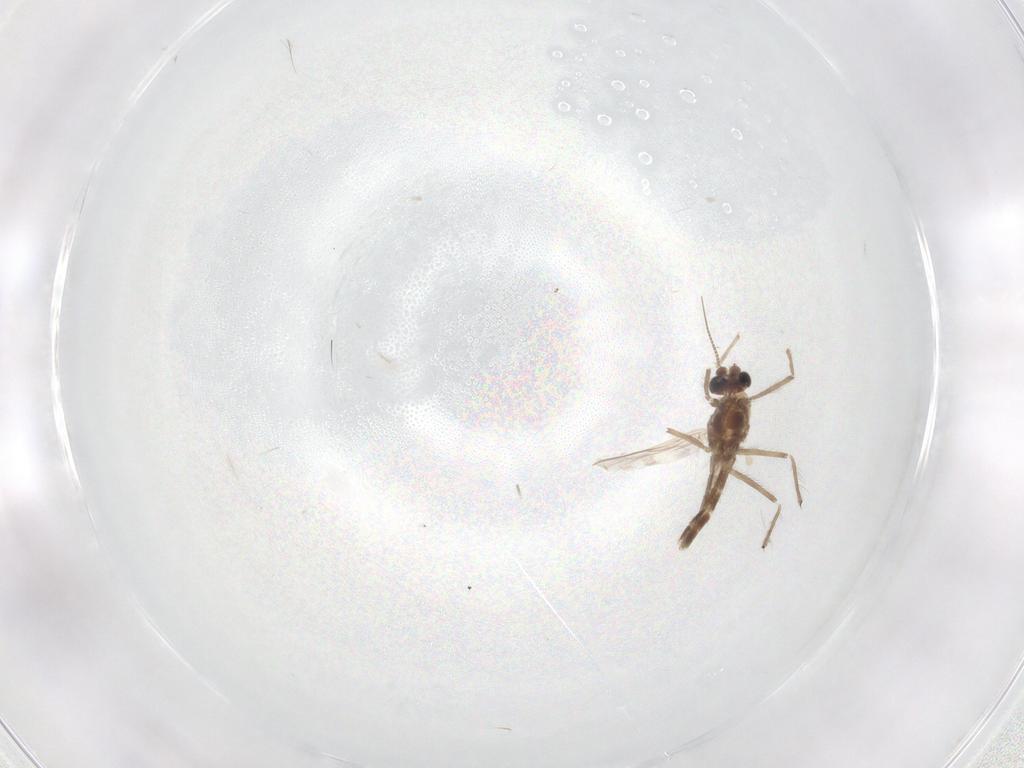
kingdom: Animalia
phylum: Arthropoda
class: Insecta
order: Diptera
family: Chironomidae
